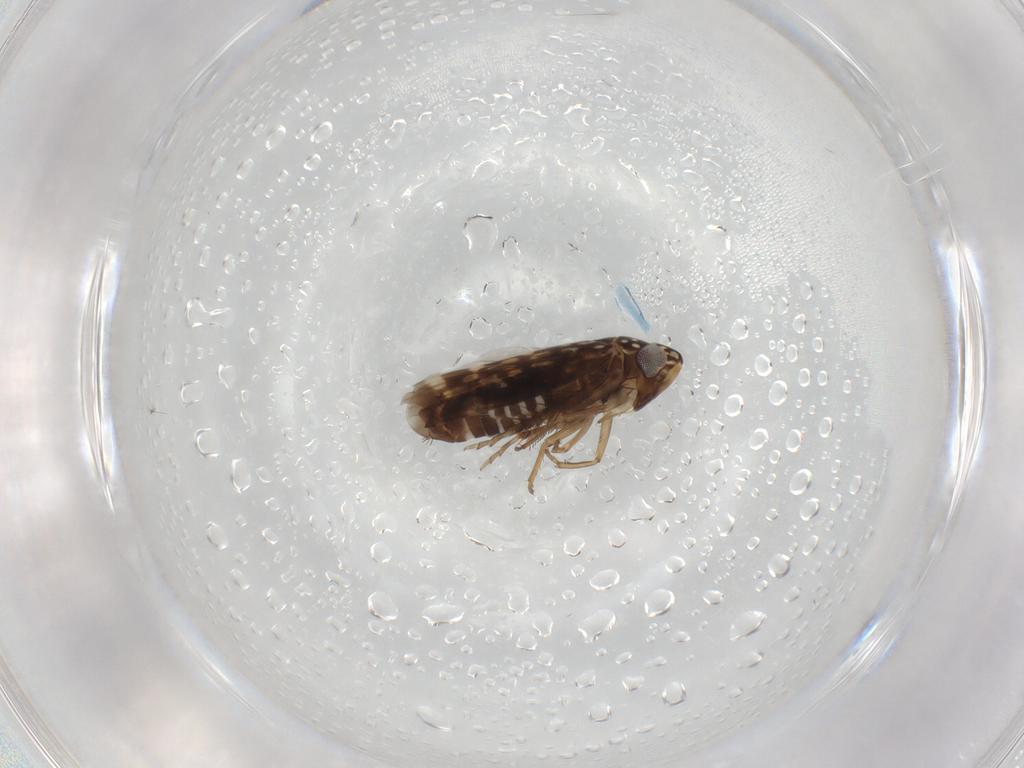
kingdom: Animalia
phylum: Arthropoda
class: Insecta
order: Hemiptera
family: Cicadellidae
